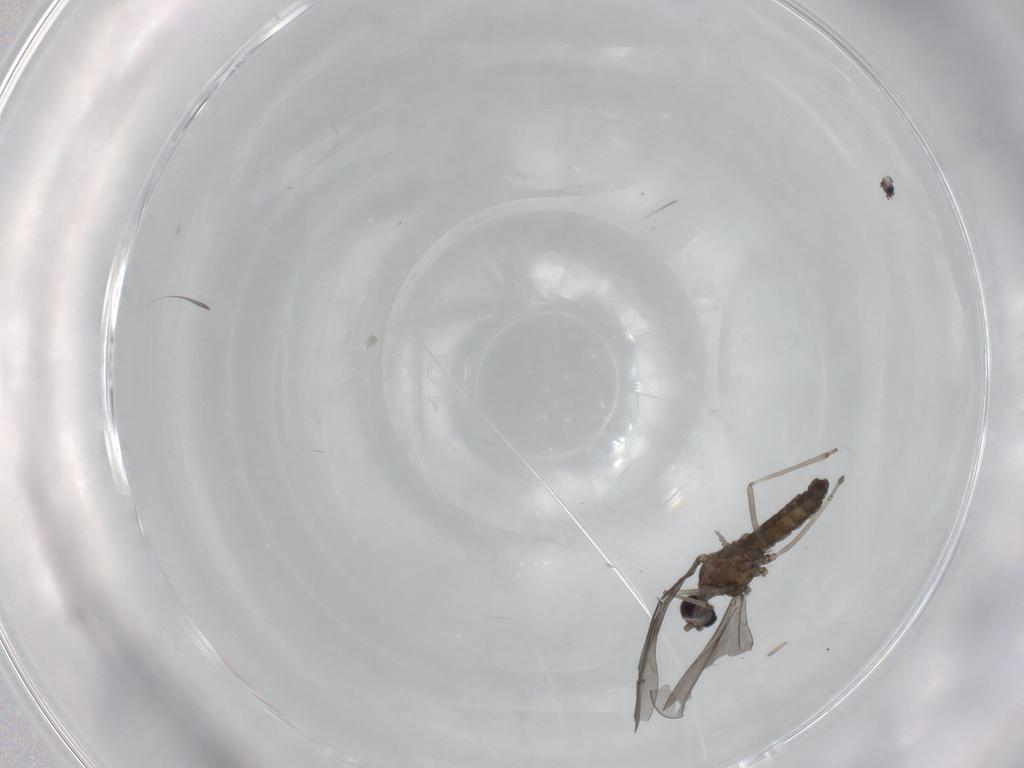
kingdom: Animalia
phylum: Arthropoda
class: Insecta
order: Diptera
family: Cecidomyiidae
